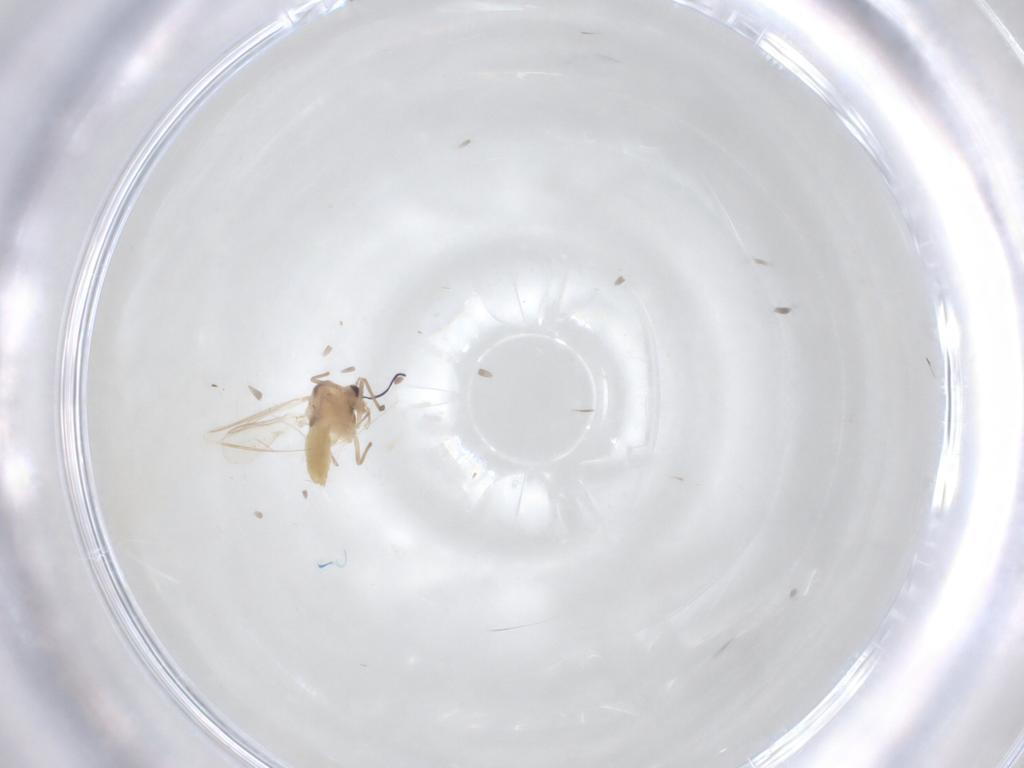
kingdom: Animalia
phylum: Arthropoda
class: Insecta
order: Diptera
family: Chironomidae
